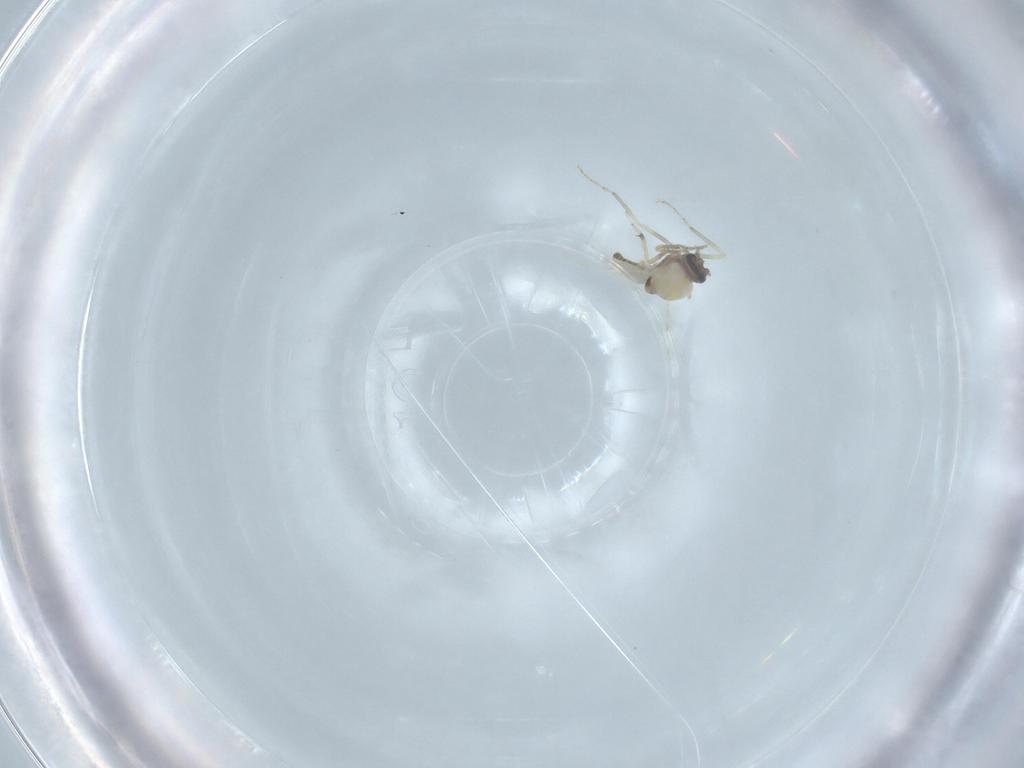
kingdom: Animalia
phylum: Arthropoda
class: Insecta
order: Diptera
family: Ceratopogonidae
